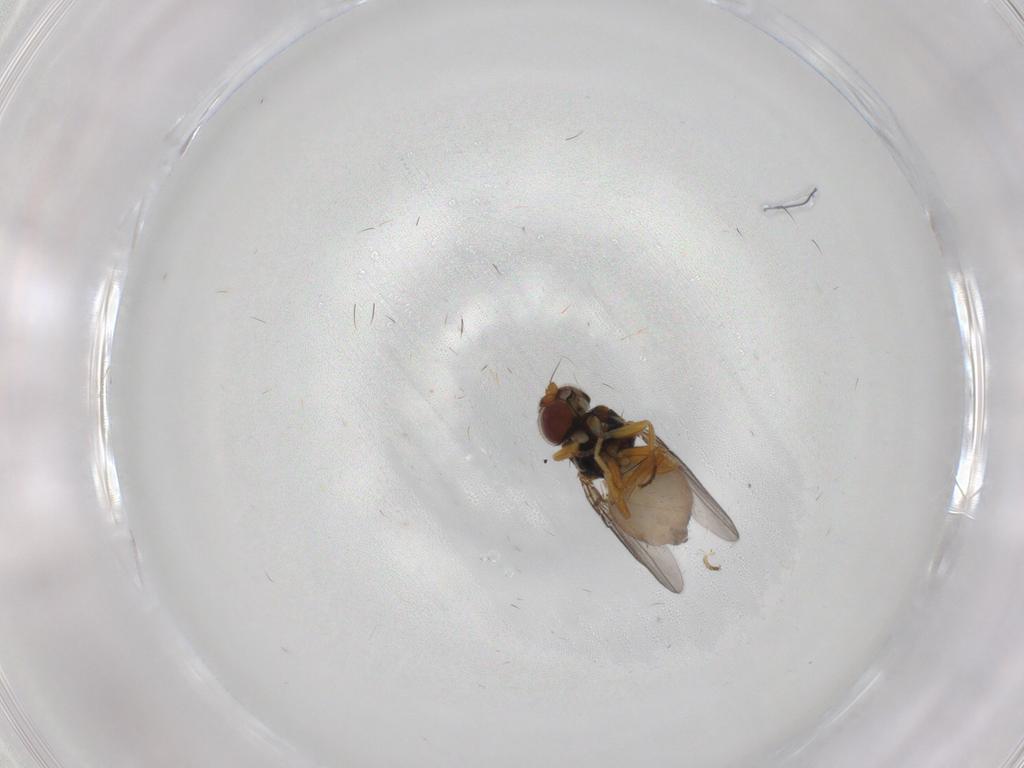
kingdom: Animalia
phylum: Arthropoda
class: Insecta
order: Diptera
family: Chloropidae
